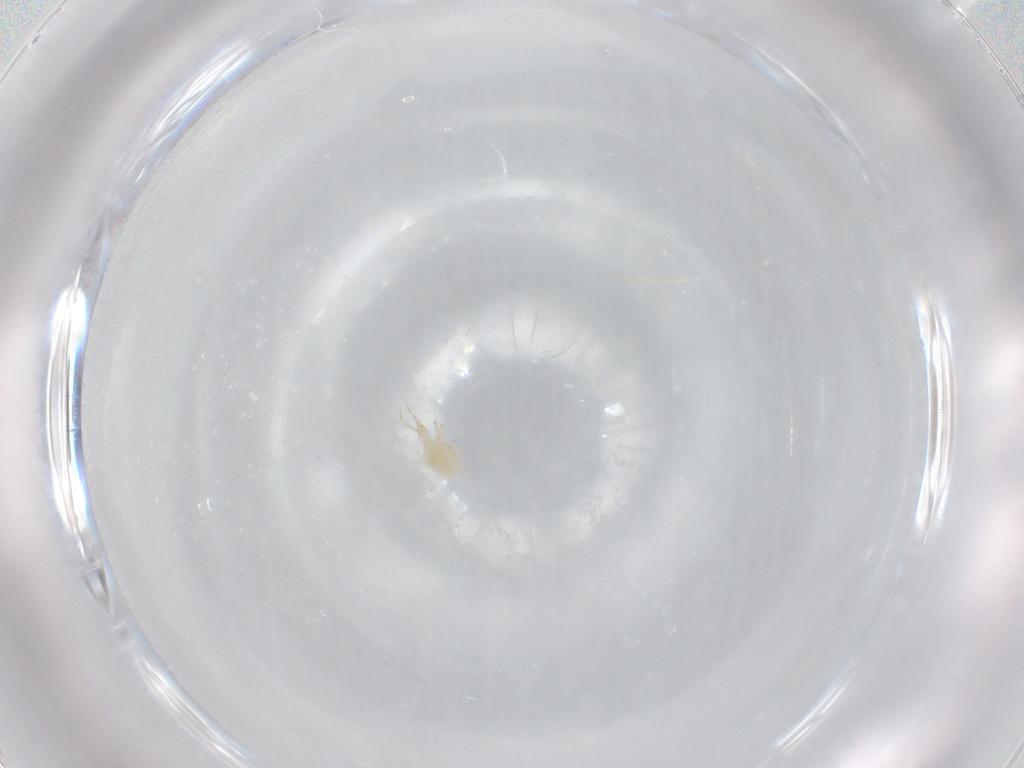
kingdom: Animalia
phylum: Arthropoda
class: Arachnida
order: Trombidiformes
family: Cunaxidae
